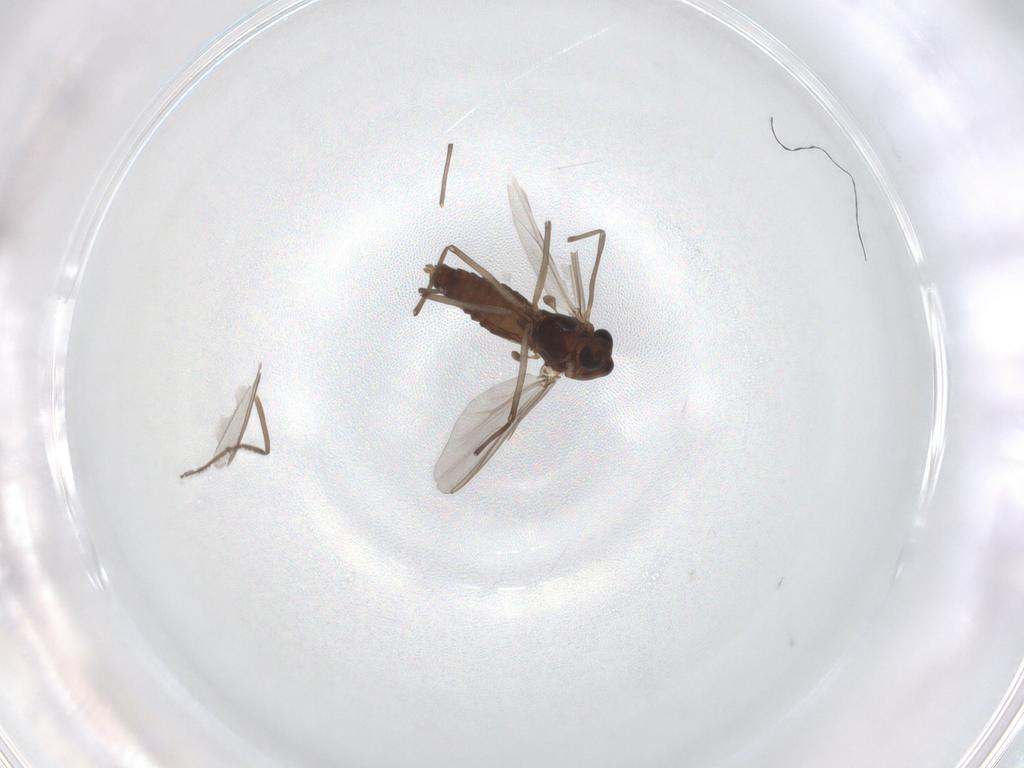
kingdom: Animalia
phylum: Arthropoda
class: Insecta
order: Diptera
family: Chironomidae
